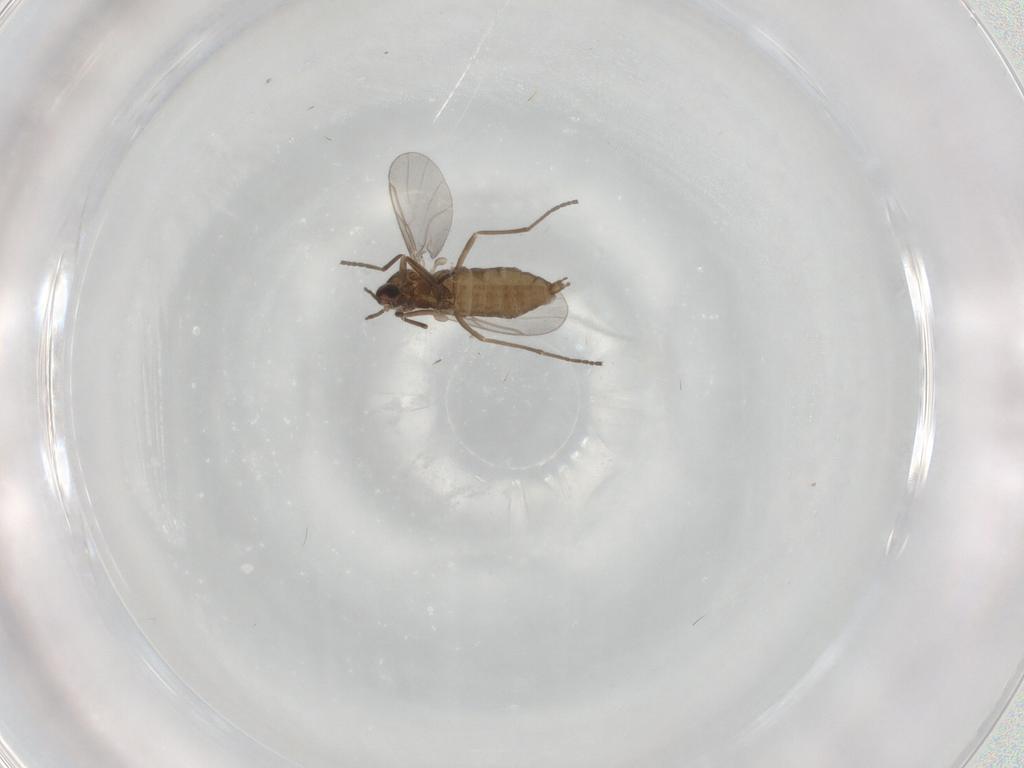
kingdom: Animalia
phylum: Arthropoda
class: Insecta
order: Diptera
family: Cecidomyiidae
